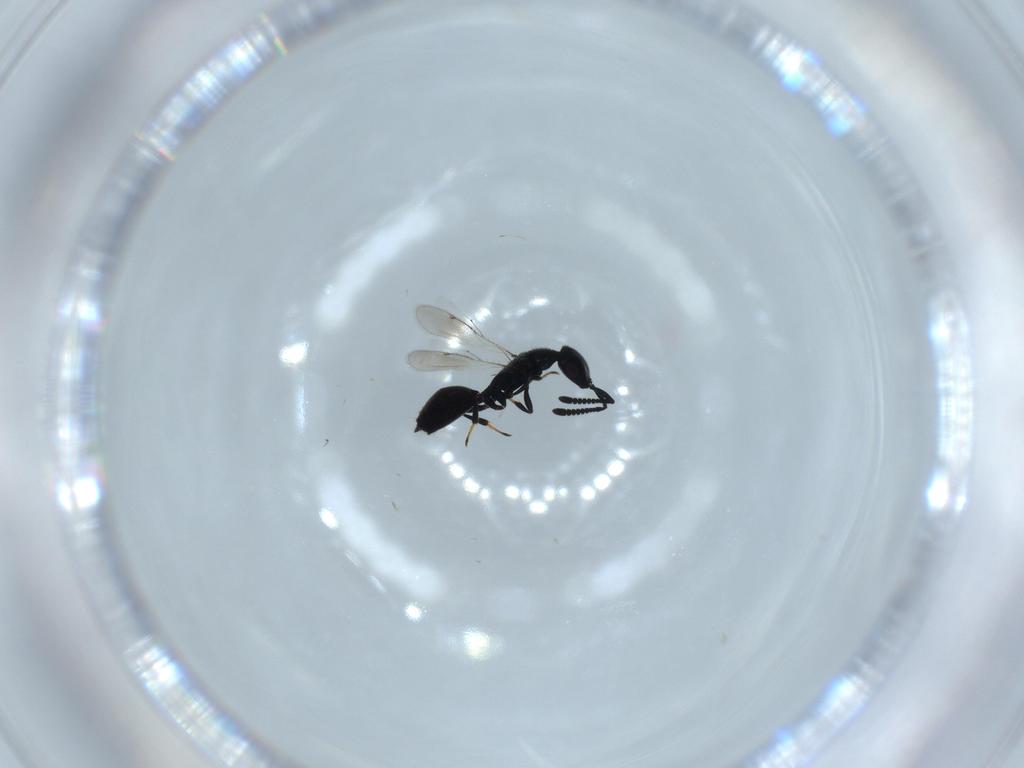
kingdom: Animalia
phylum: Arthropoda
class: Insecta
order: Hymenoptera
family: Spalangiidae
